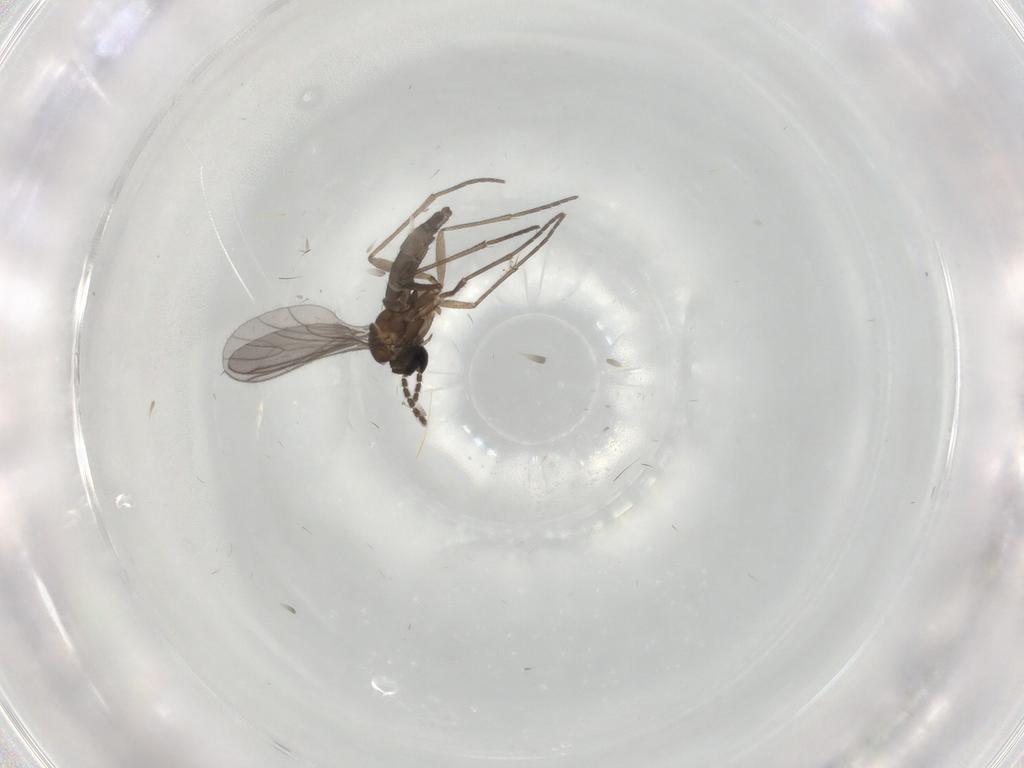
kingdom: Animalia
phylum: Arthropoda
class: Insecta
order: Diptera
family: Sciaridae
